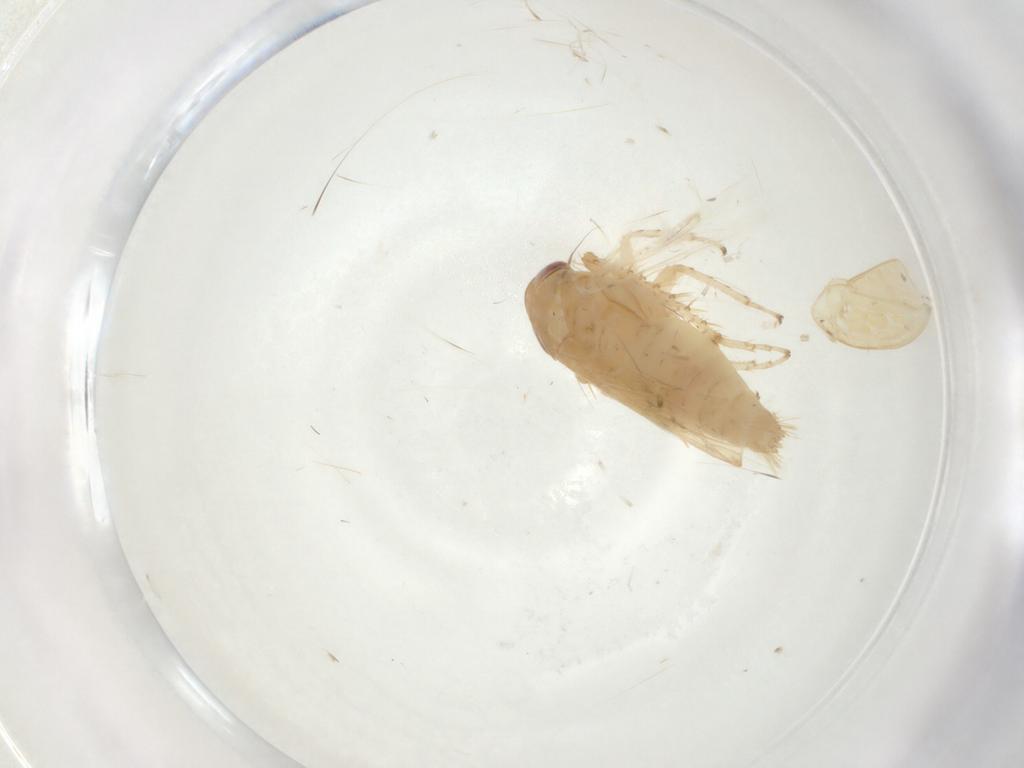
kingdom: Animalia
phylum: Arthropoda
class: Insecta
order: Hemiptera
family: Cicadellidae
